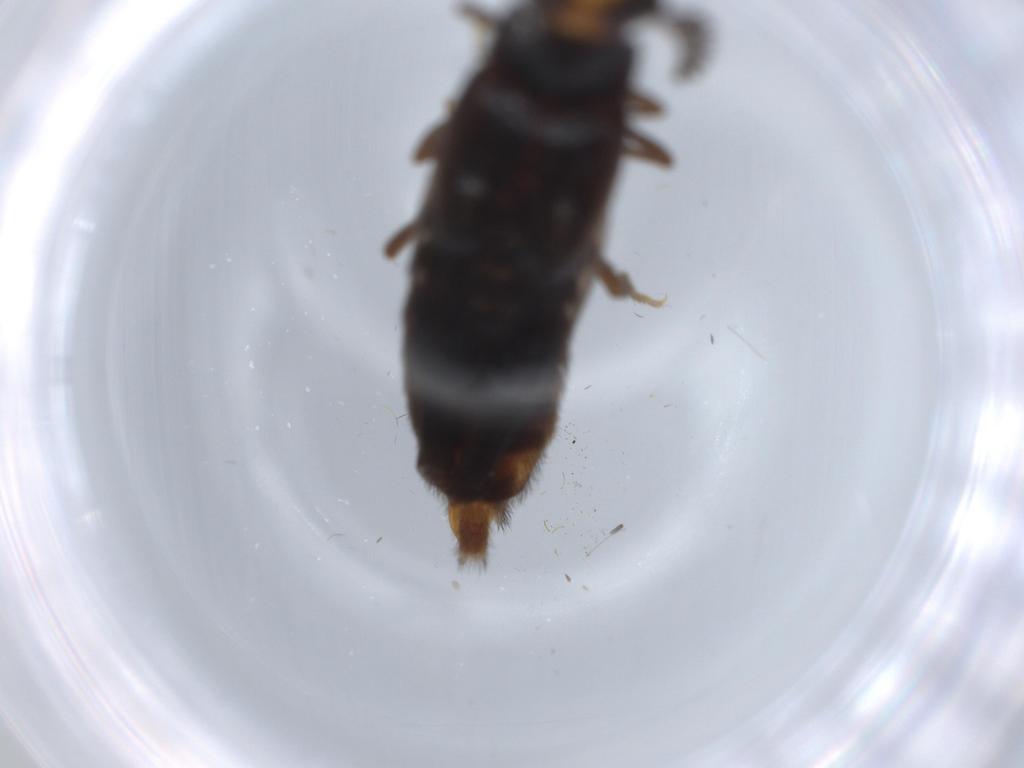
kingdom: Animalia
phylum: Arthropoda
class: Insecta
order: Coleoptera
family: Phengodidae
